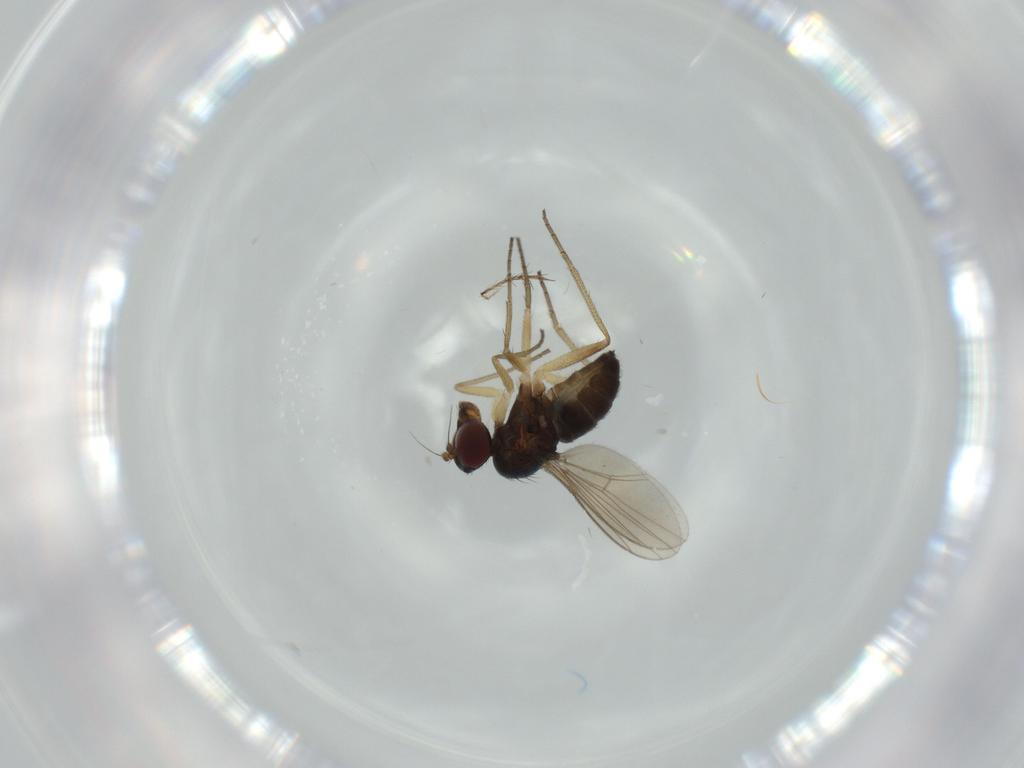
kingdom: Animalia
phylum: Arthropoda
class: Insecta
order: Diptera
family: Dolichopodidae
